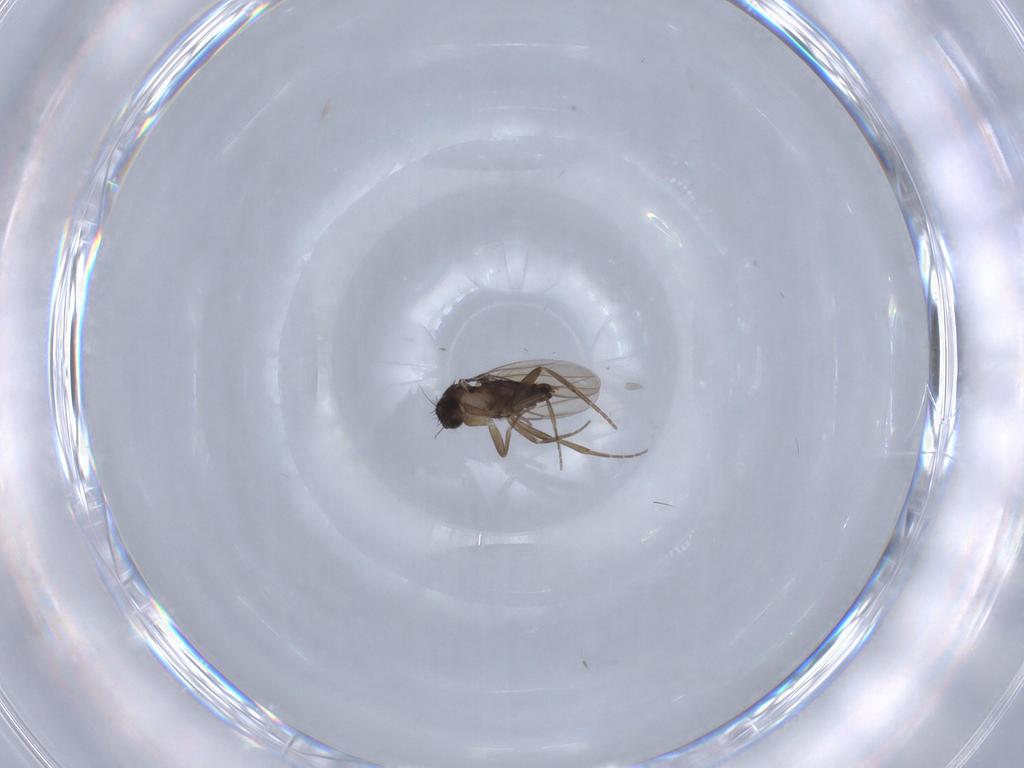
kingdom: Animalia
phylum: Arthropoda
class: Insecta
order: Diptera
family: Phoridae
